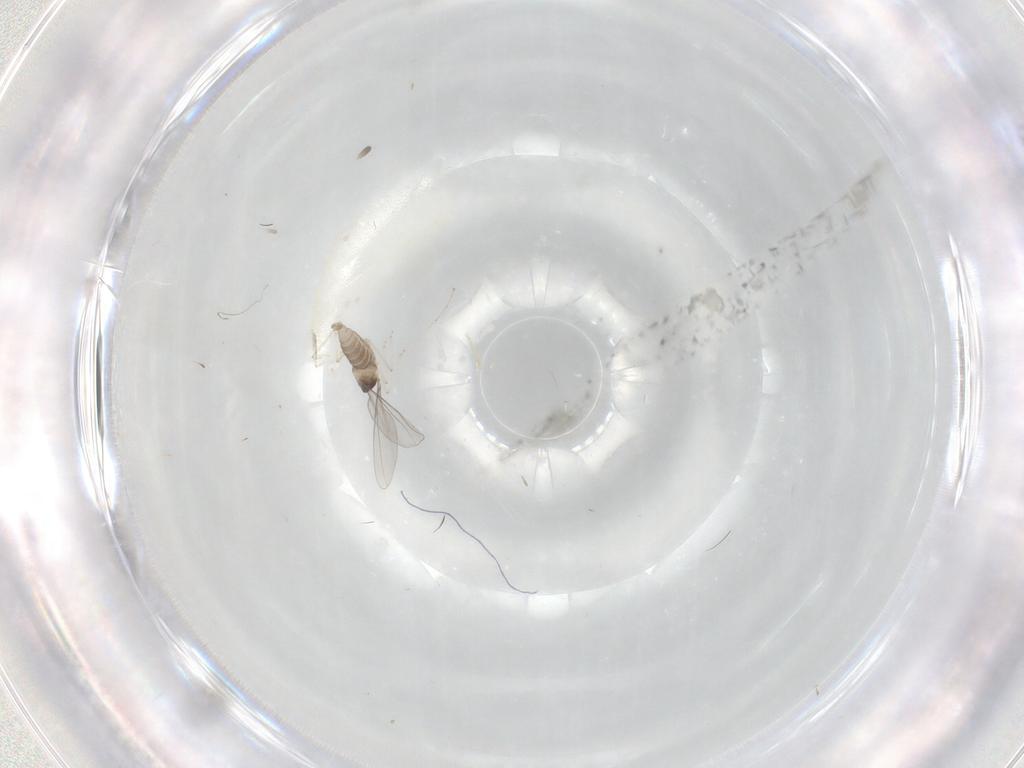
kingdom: Animalia
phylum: Arthropoda
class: Insecta
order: Diptera
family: Cecidomyiidae
